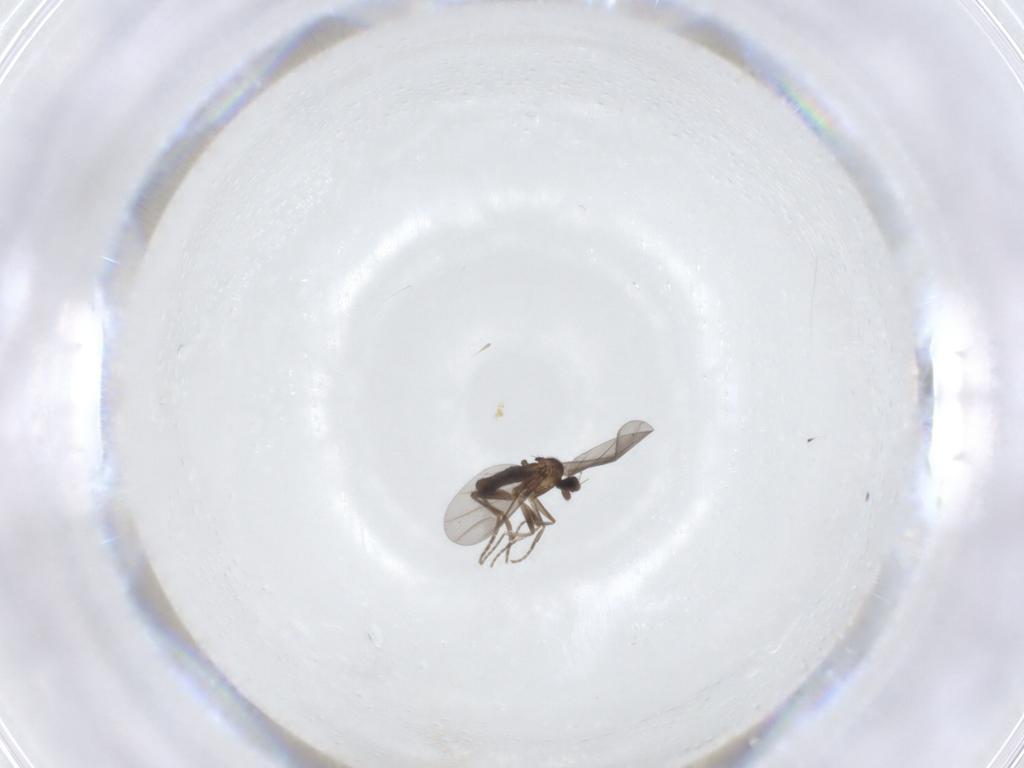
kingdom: Animalia
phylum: Arthropoda
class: Insecta
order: Diptera
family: Phoridae
